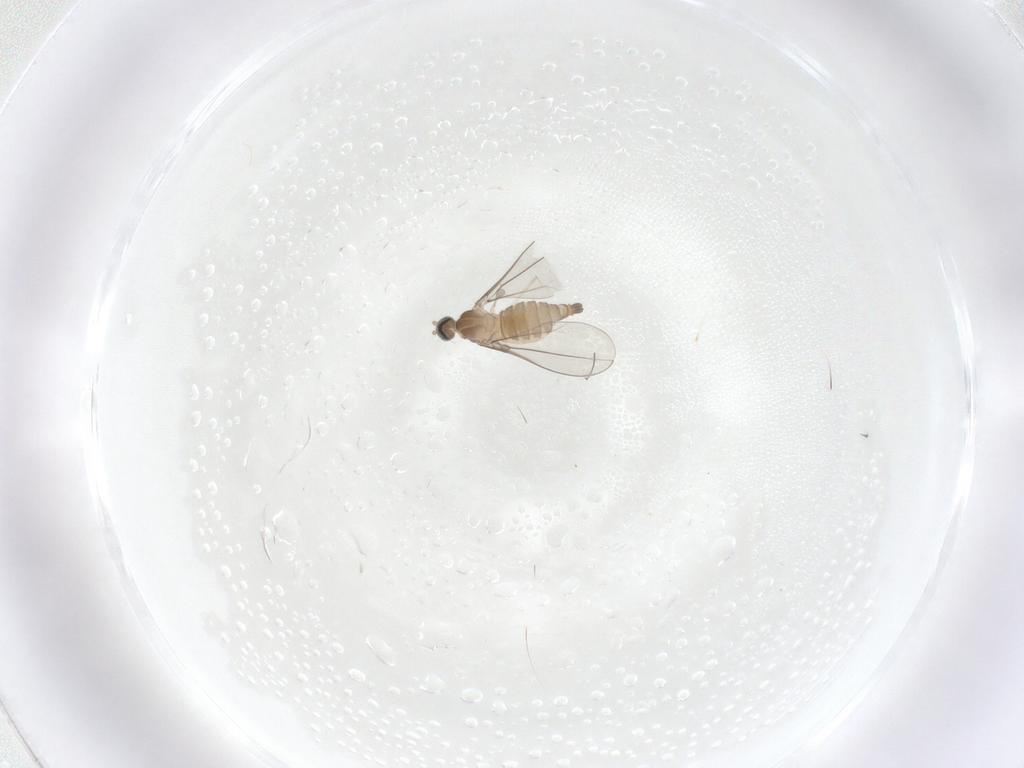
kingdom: Animalia
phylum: Arthropoda
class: Insecta
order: Diptera
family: Cecidomyiidae
